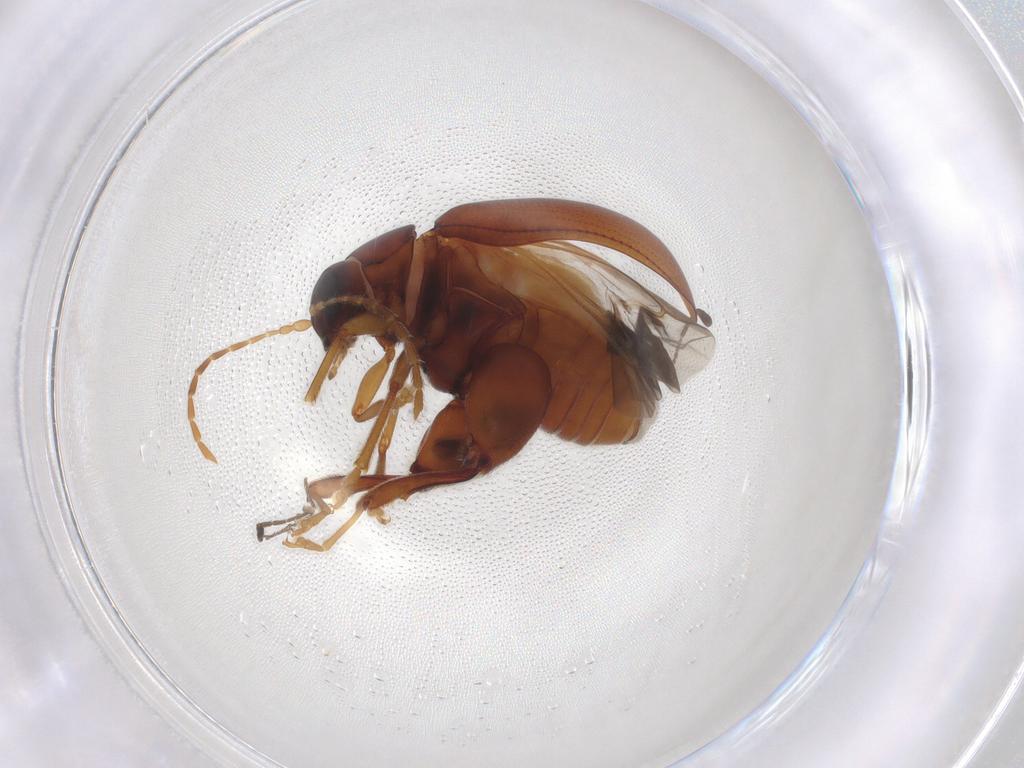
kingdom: Animalia
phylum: Arthropoda
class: Insecta
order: Coleoptera
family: Chrysomelidae
